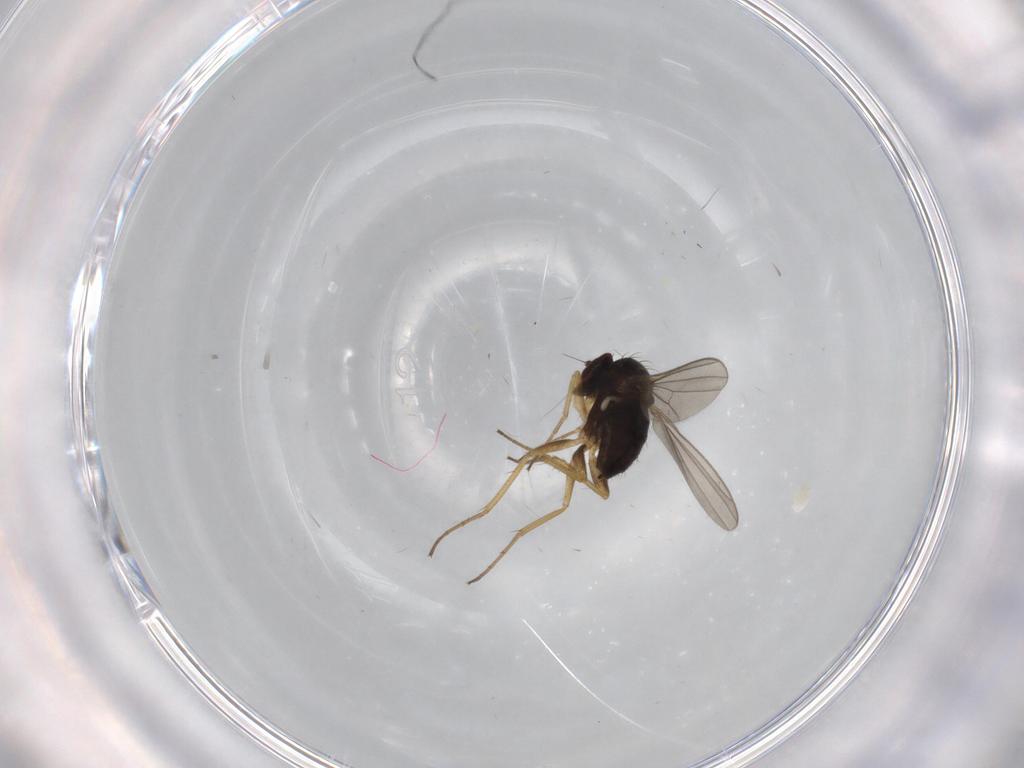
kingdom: Animalia
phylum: Arthropoda
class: Insecta
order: Diptera
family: Dolichopodidae
